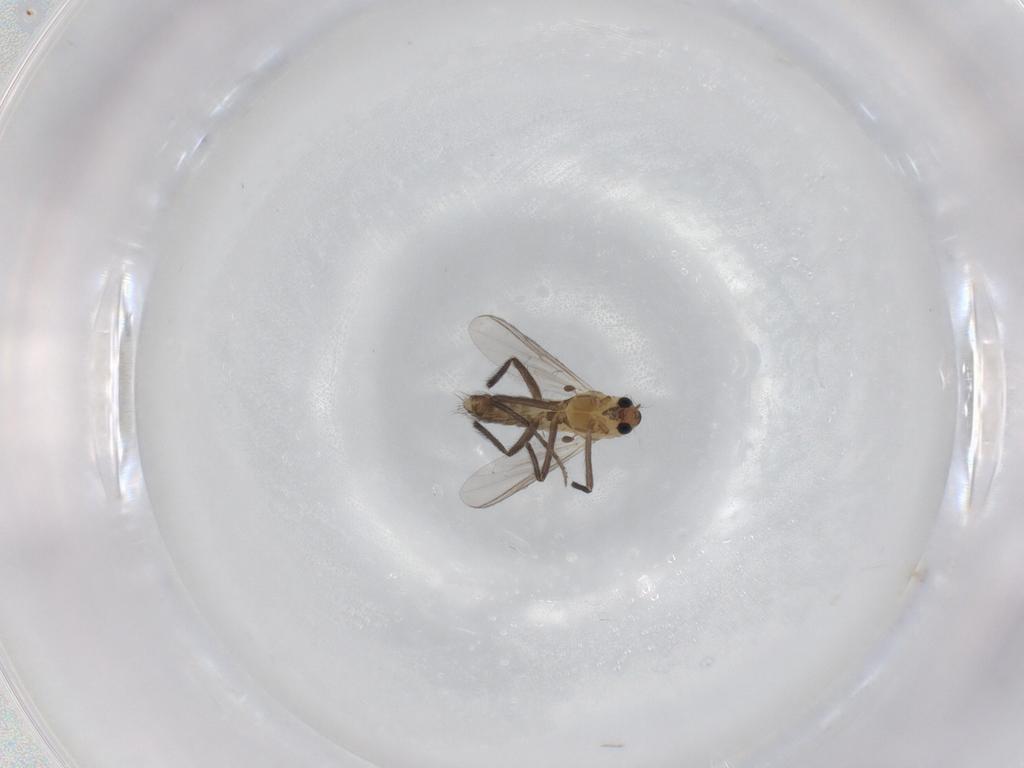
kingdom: Animalia
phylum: Arthropoda
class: Insecta
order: Diptera
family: Chironomidae
